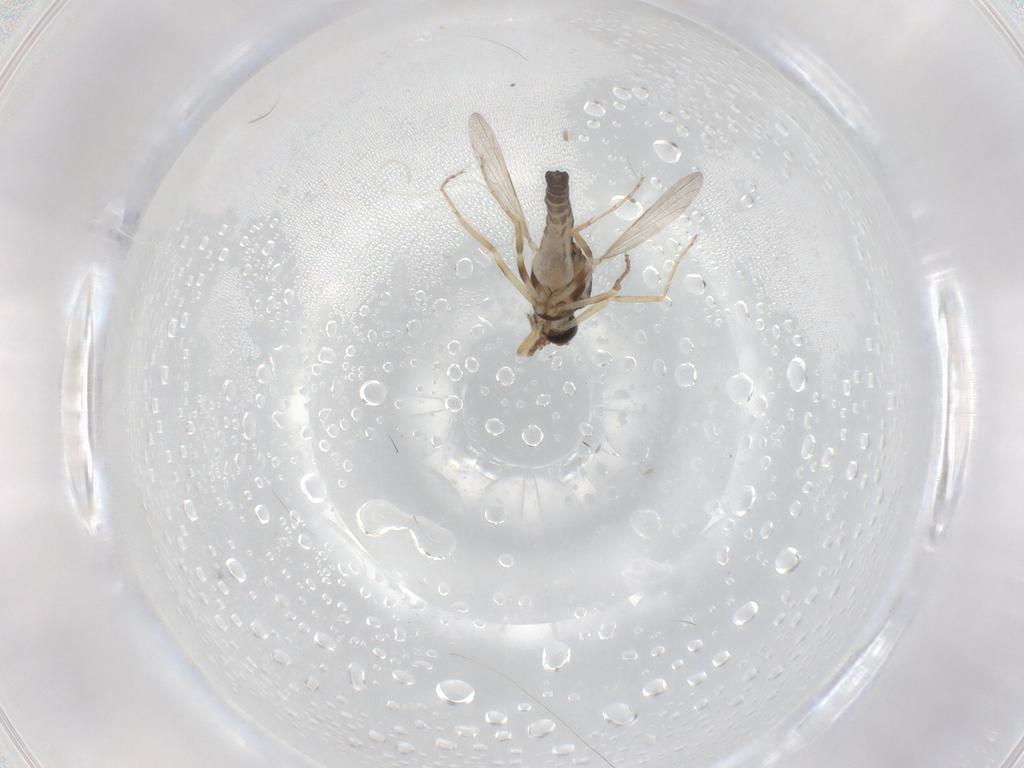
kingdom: Animalia
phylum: Arthropoda
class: Insecta
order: Diptera
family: Ceratopogonidae
